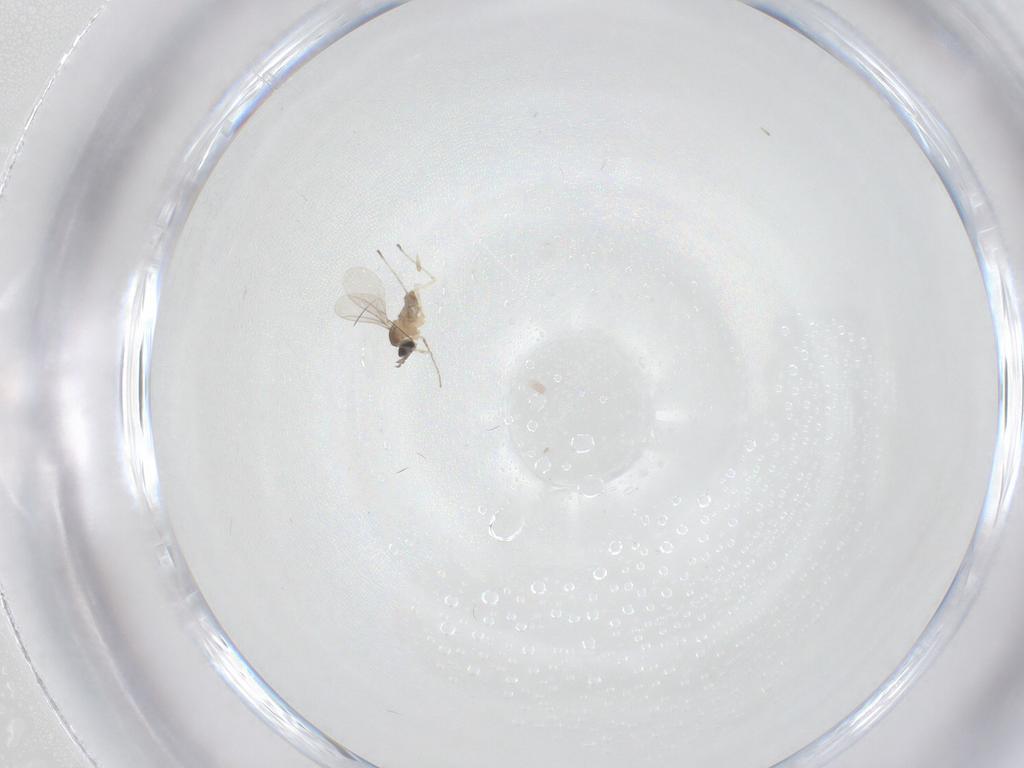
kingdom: Animalia
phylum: Arthropoda
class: Insecta
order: Diptera
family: Cecidomyiidae
